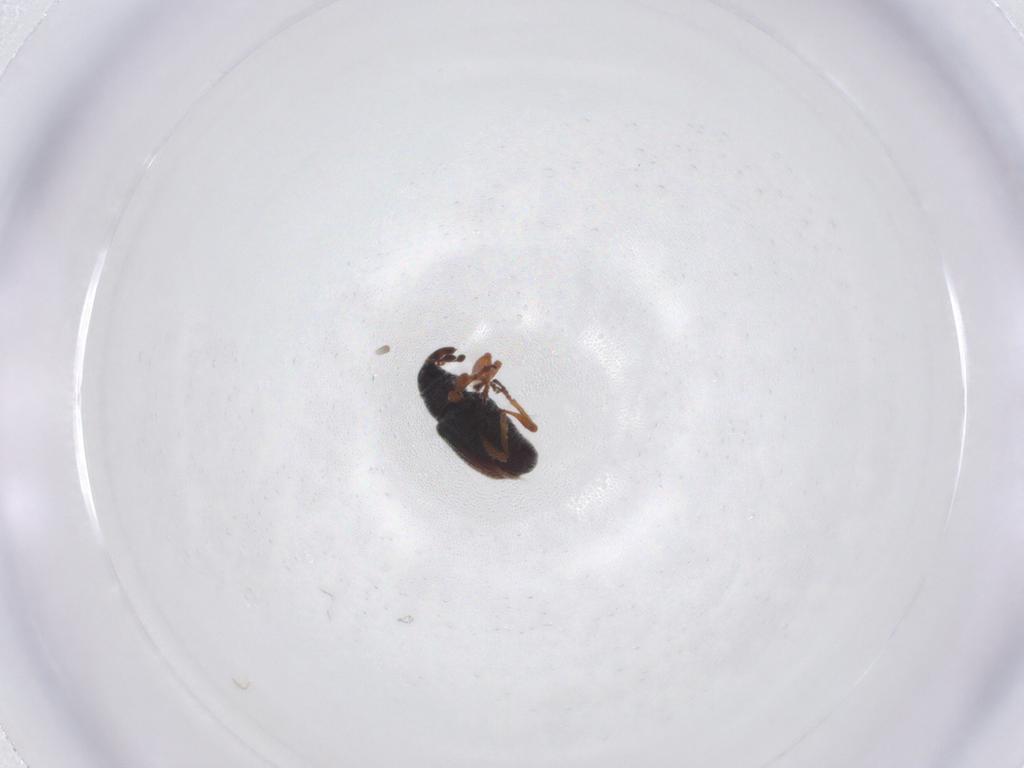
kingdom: Animalia
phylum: Arthropoda
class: Insecta
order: Coleoptera
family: Curculionidae
